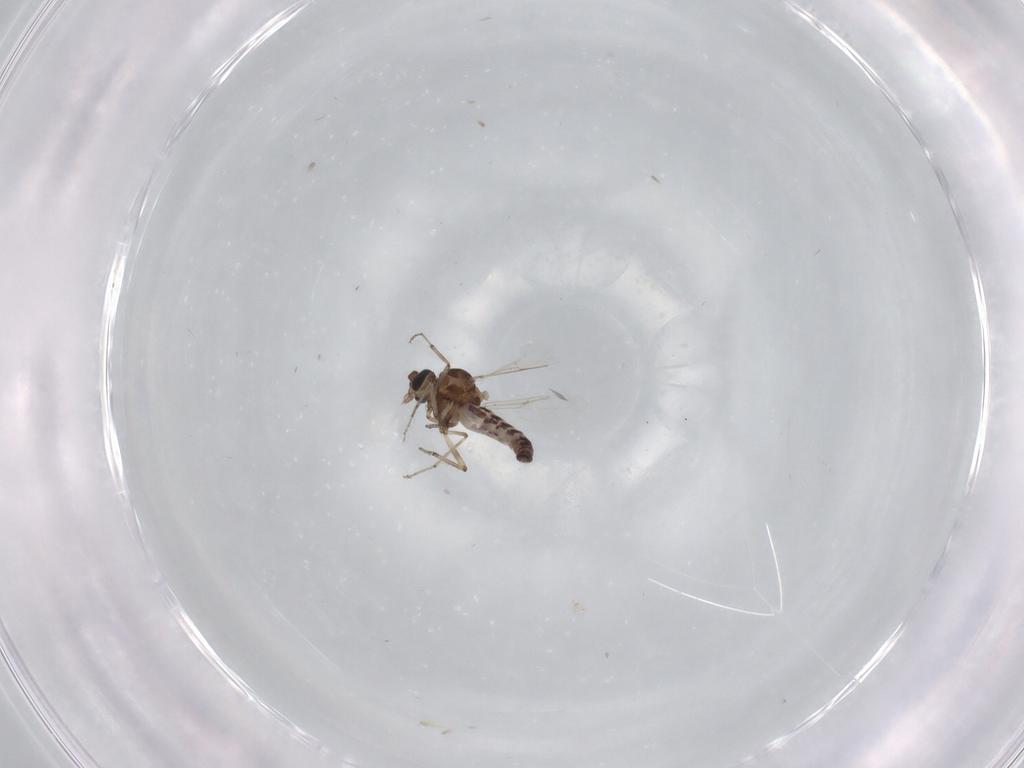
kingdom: Animalia
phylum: Arthropoda
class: Insecta
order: Diptera
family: Ceratopogonidae
